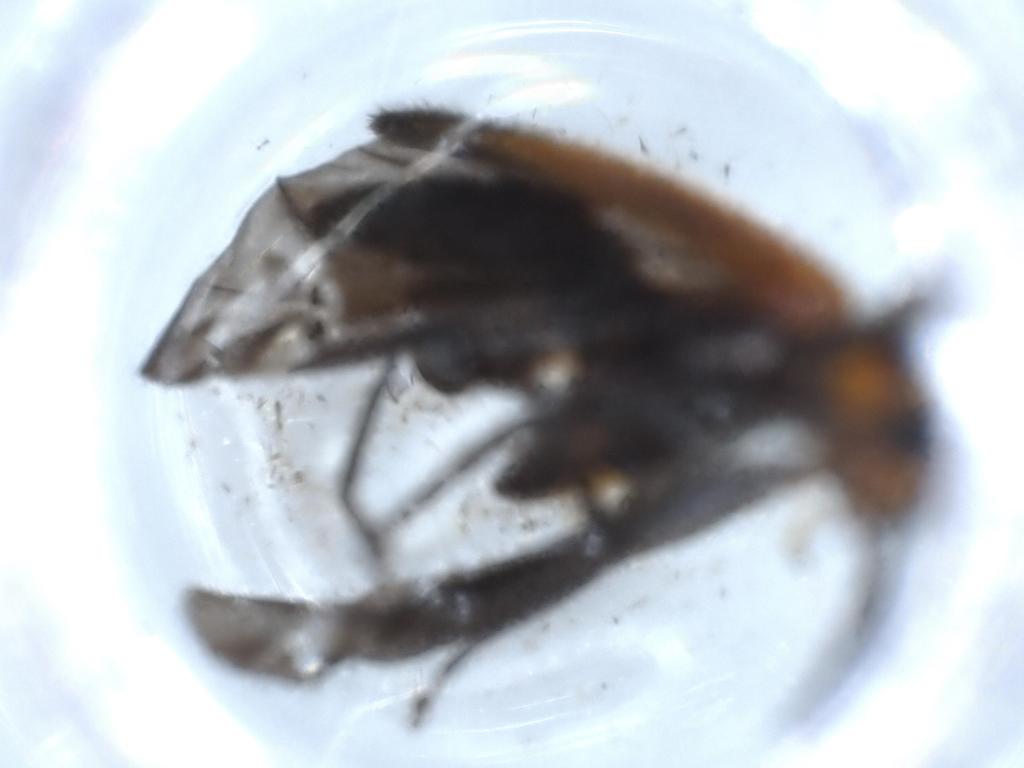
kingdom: Animalia
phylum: Arthropoda
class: Insecta
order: Coleoptera
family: Cleridae
